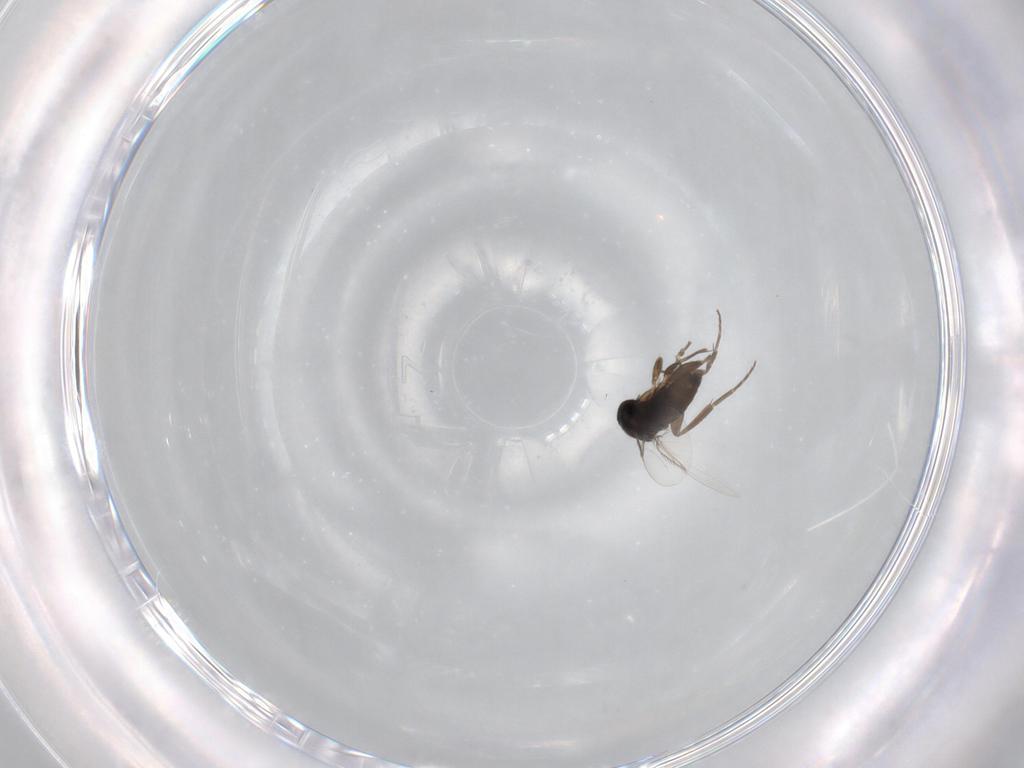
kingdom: Animalia
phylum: Arthropoda
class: Insecta
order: Diptera
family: Phoridae
